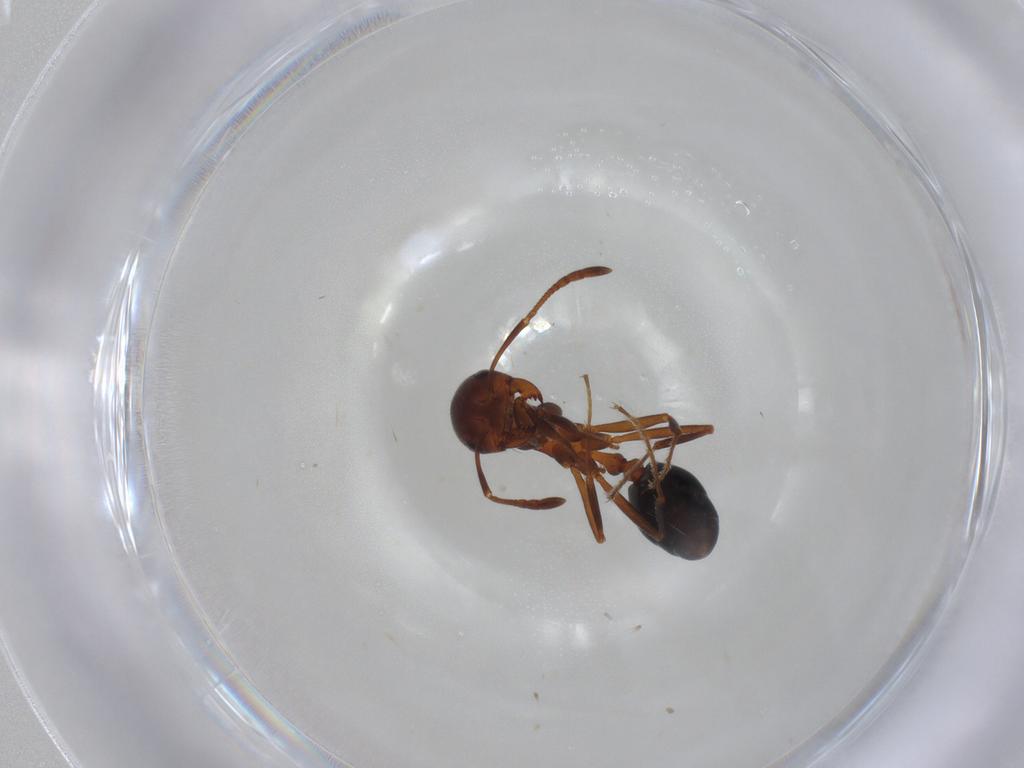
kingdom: Animalia
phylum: Arthropoda
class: Insecta
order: Hymenoptera
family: Formicidae
